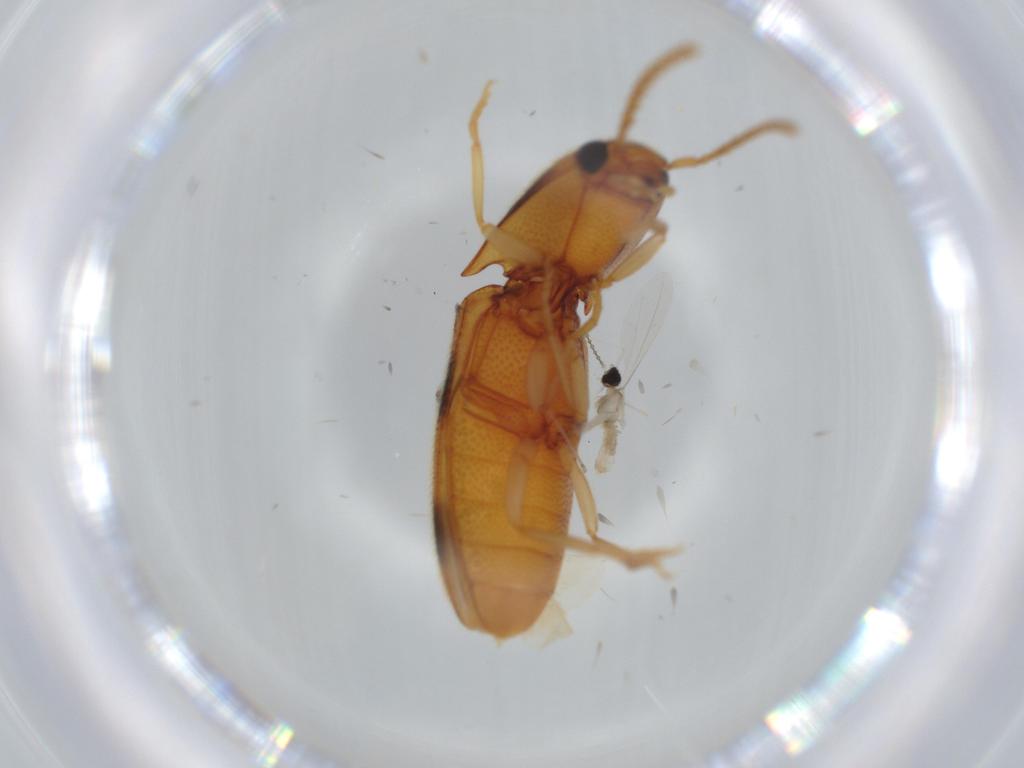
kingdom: Animalia
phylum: Arthropoda
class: Insecta
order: Diptera
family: Cecidomyiidae
